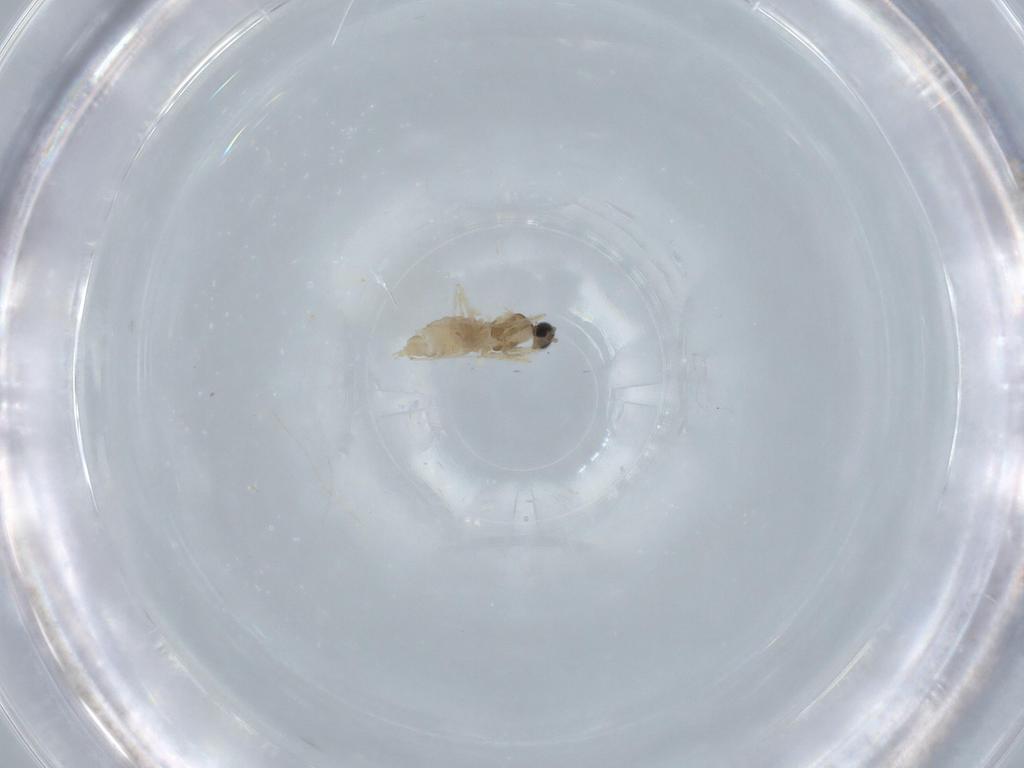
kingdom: Animalia
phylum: Arthropoda
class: Insecta
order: Diptera
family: Cecidomyiidae
